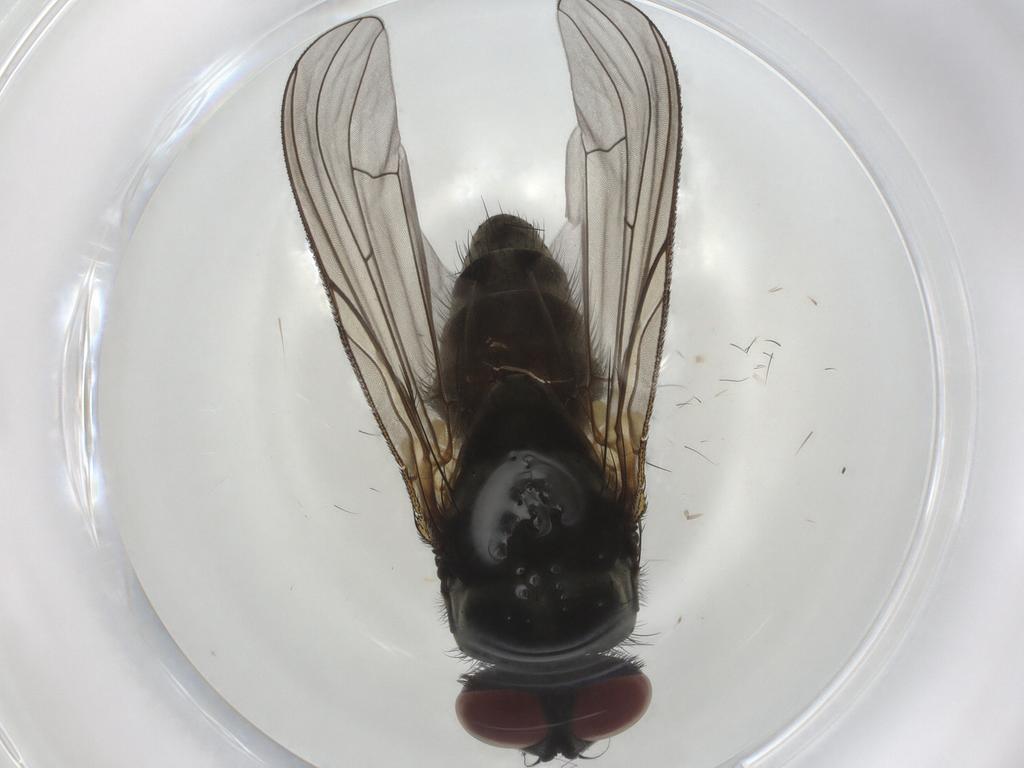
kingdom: Animalia
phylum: Arthropoda
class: Insecta
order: Diptera
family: Muscidae
